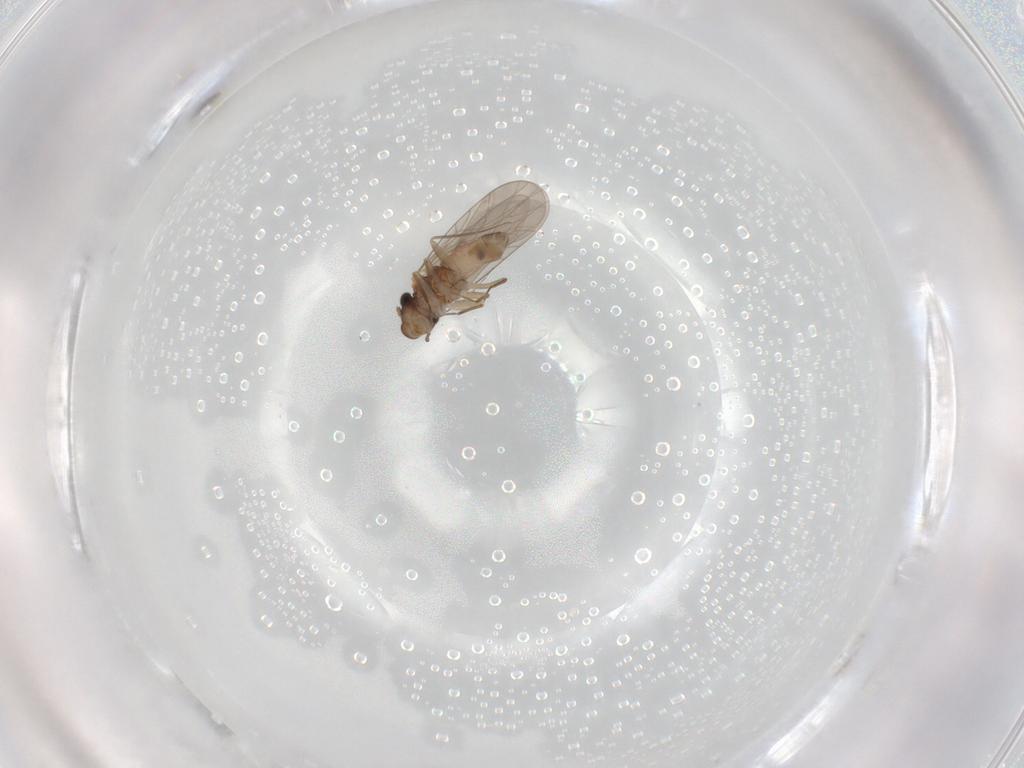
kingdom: Animalia
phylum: Arthropoda
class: Insecta
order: Psocodea
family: Lepidopsocidae
